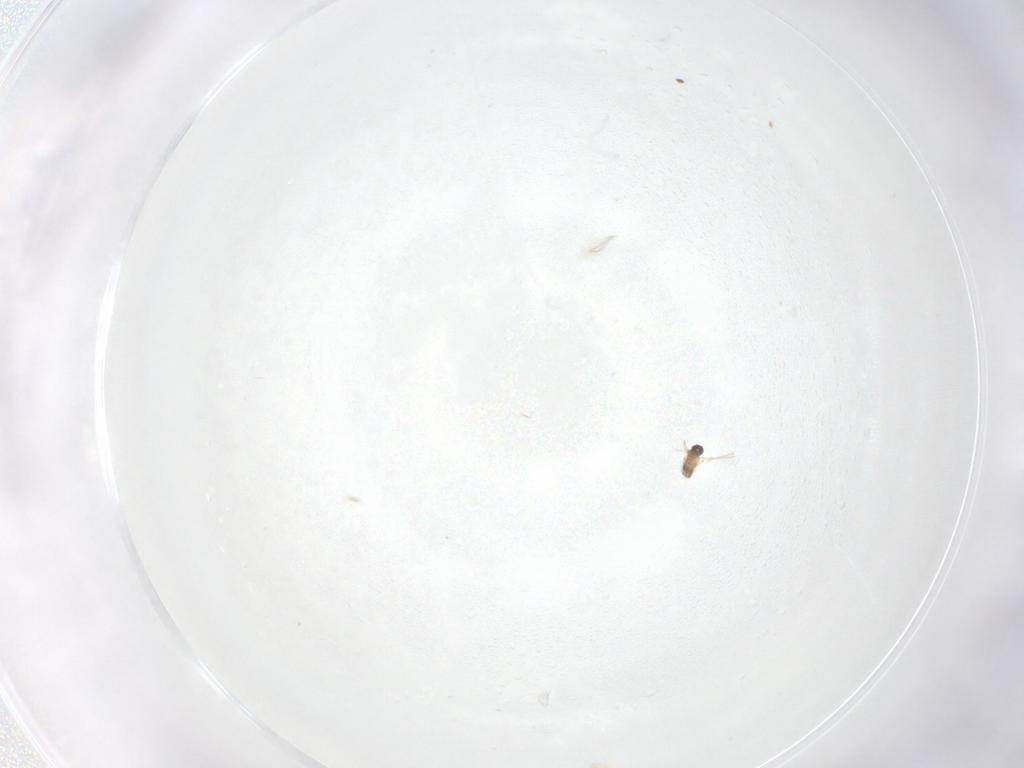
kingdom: Animalia
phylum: Arthropoda
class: Insecta
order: Hymenoptera
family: Mymaridae
